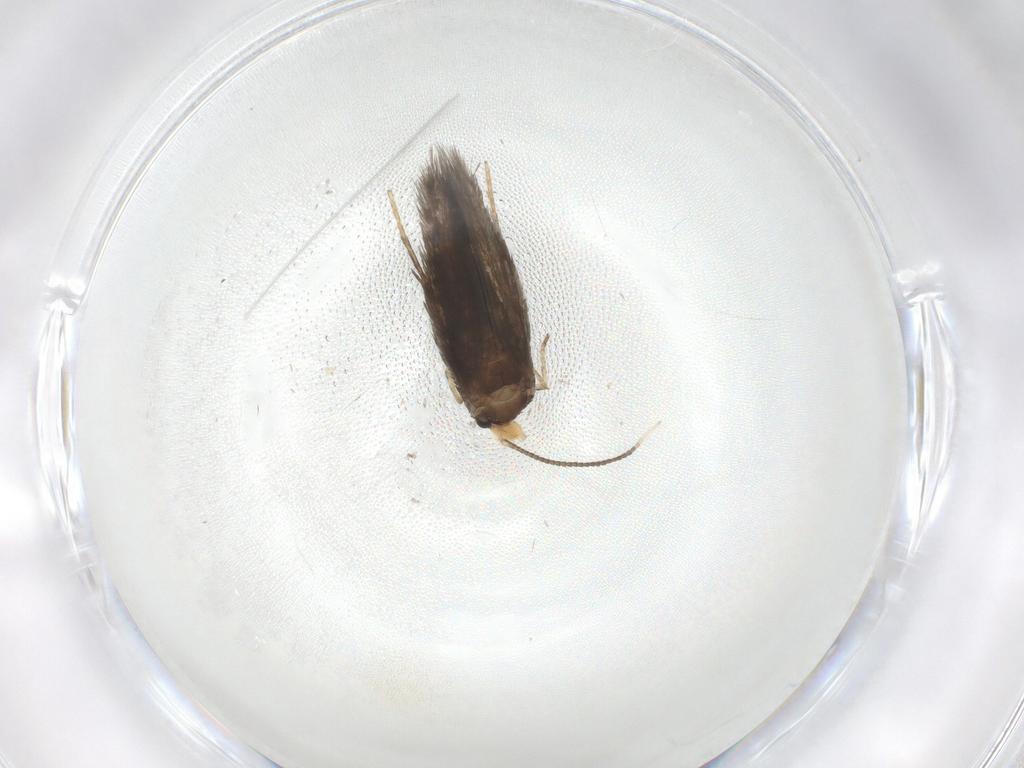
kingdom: Animalia
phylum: Arthropoda
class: Insecta
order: Lepidoptera
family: Nepticulidae
